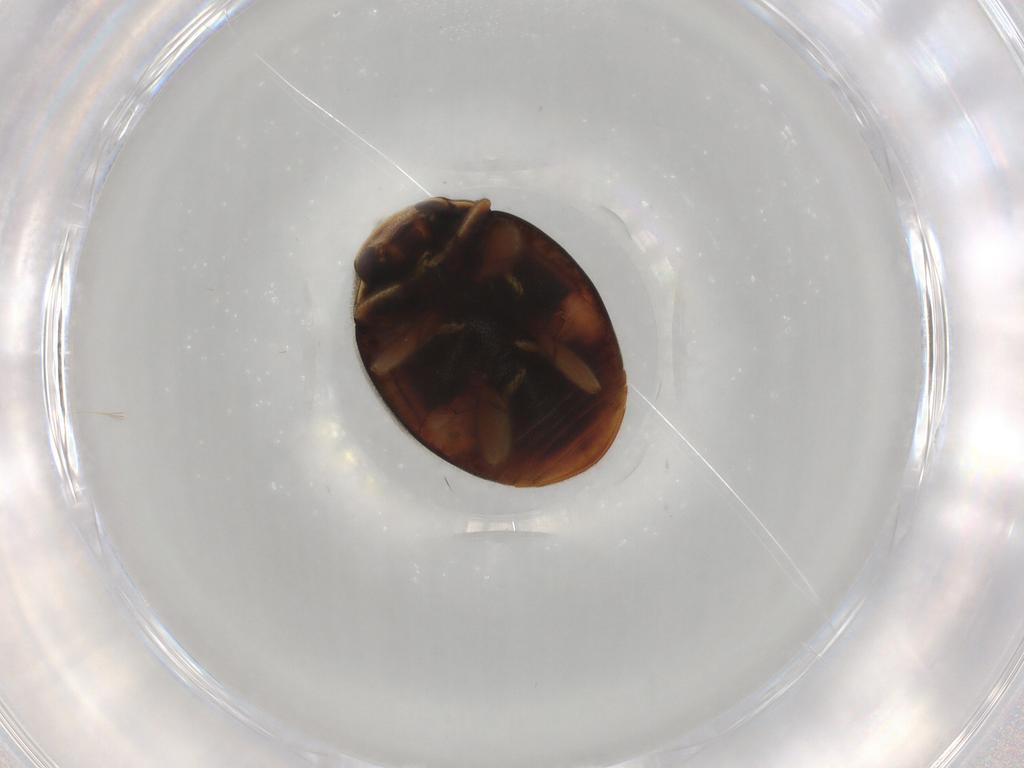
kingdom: Animalia
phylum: Arthropoda
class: Insecta
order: Coleoptera
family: Coccinellidae
